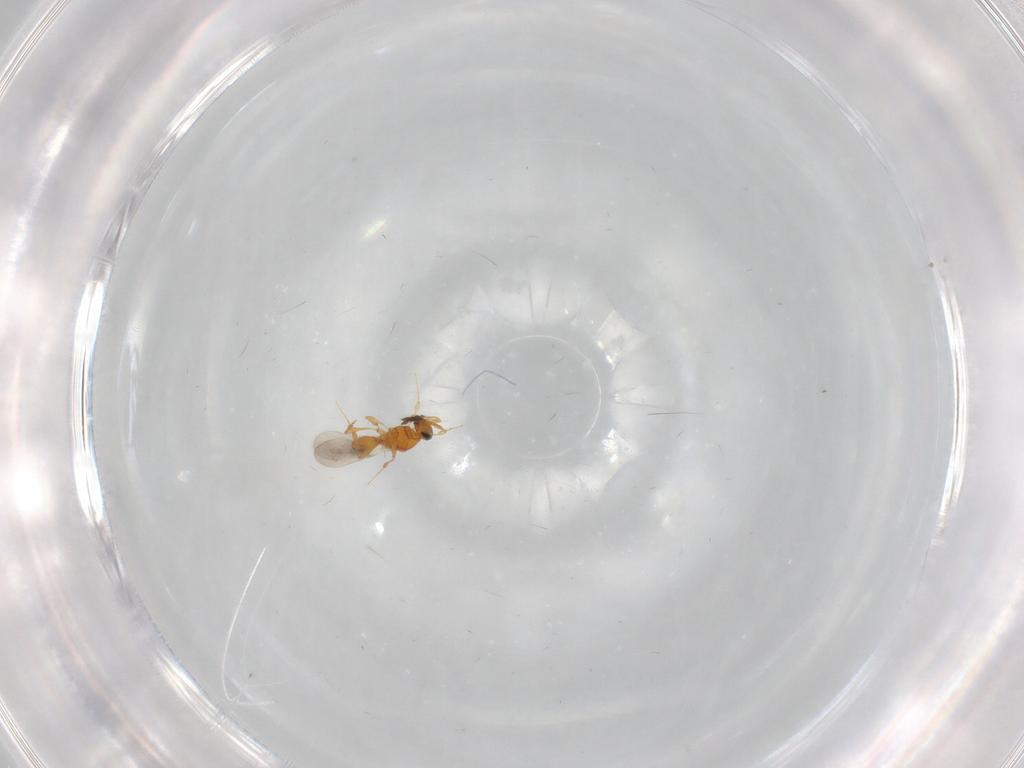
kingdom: Animalia
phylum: Arthropoda
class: Insecta
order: Hymenoptera
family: Platygastridae
